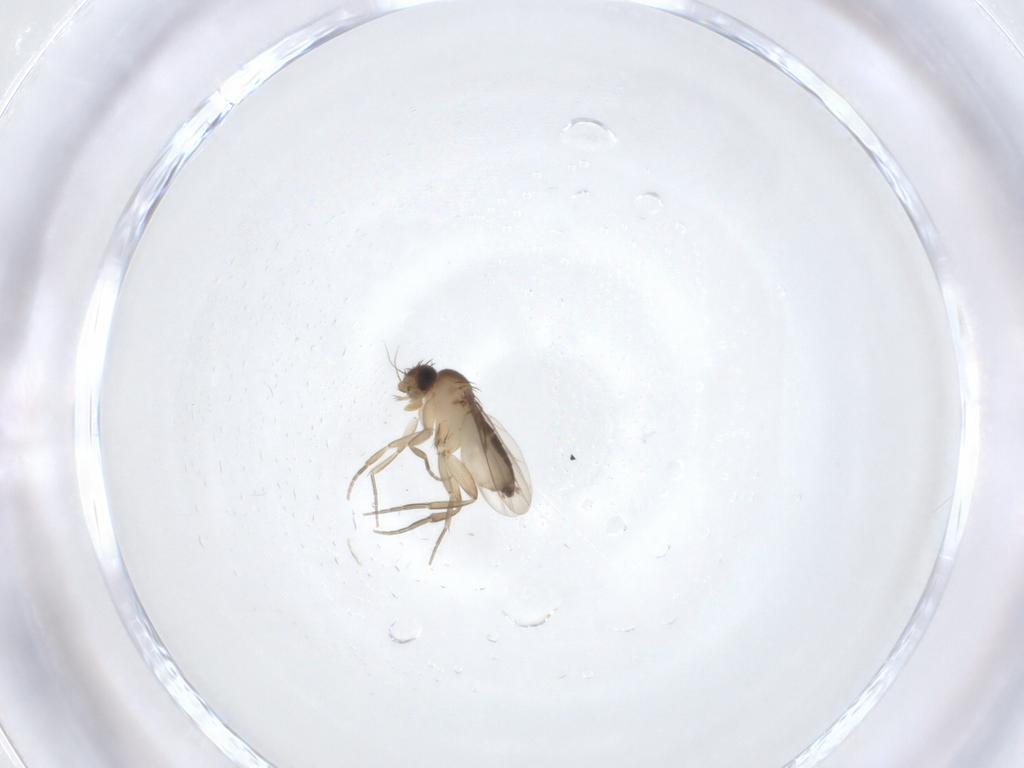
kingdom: Animalia
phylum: Arthropoda
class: Insecta
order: Diptera
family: Phoridae
